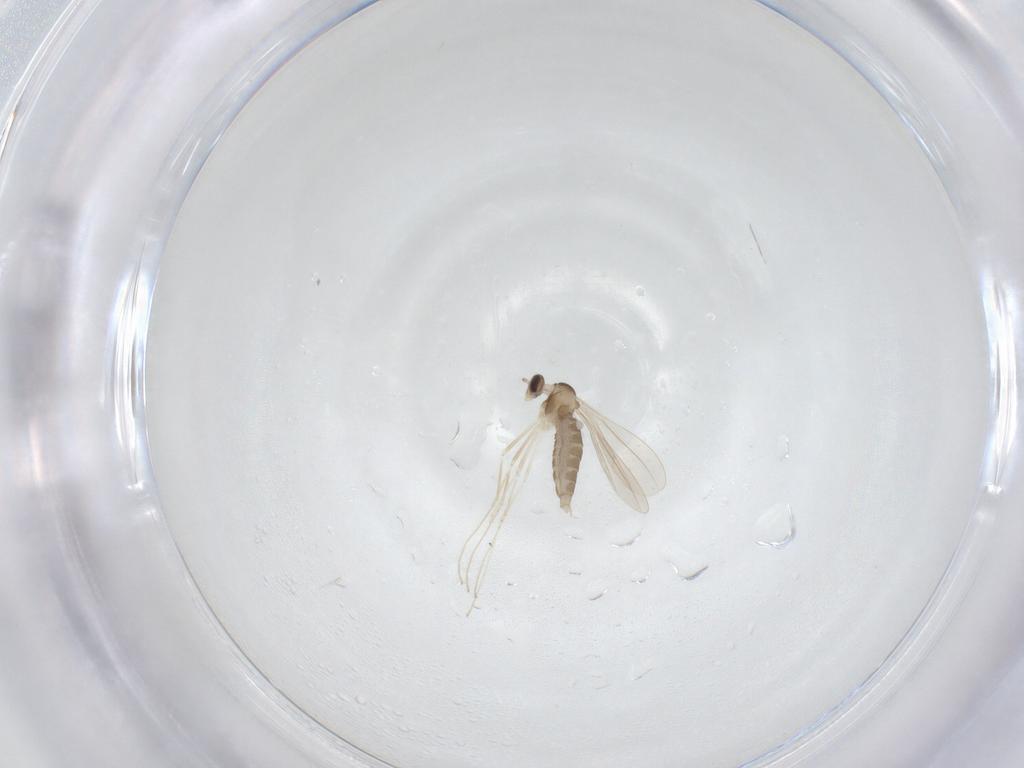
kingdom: Animalia
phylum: Arthropoda
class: Insecta
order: Diptera
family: Cecidomyiidae
